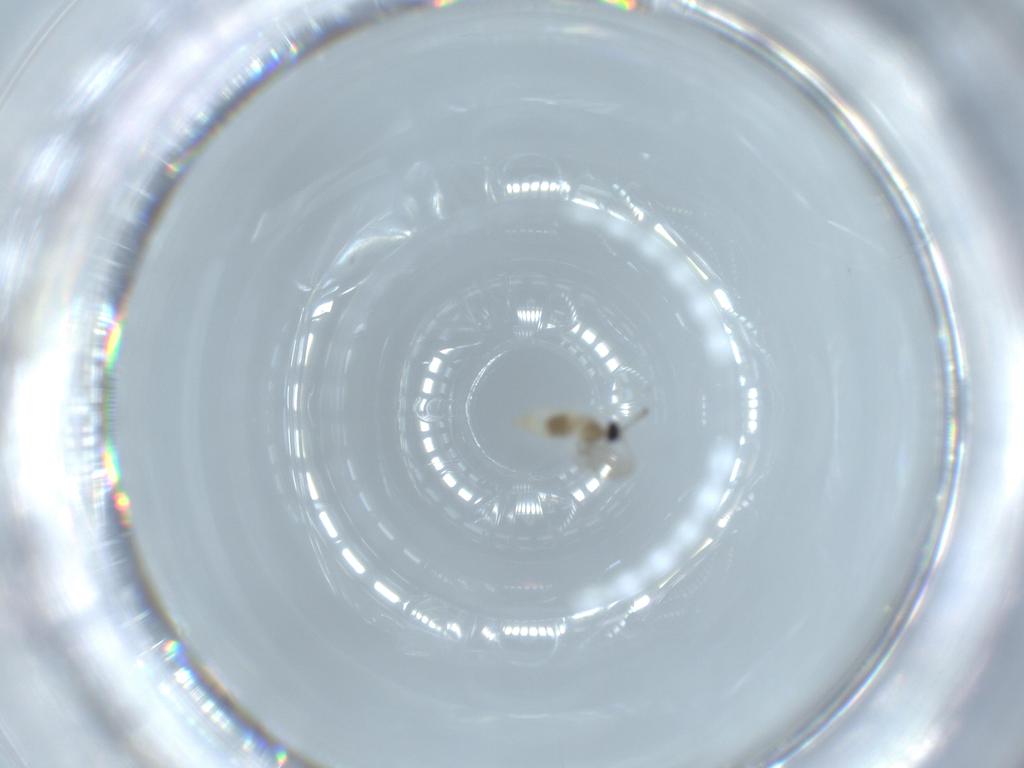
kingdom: Animalia
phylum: Arthropoda
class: Insecta
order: Diptera
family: Cecidomyiidae
